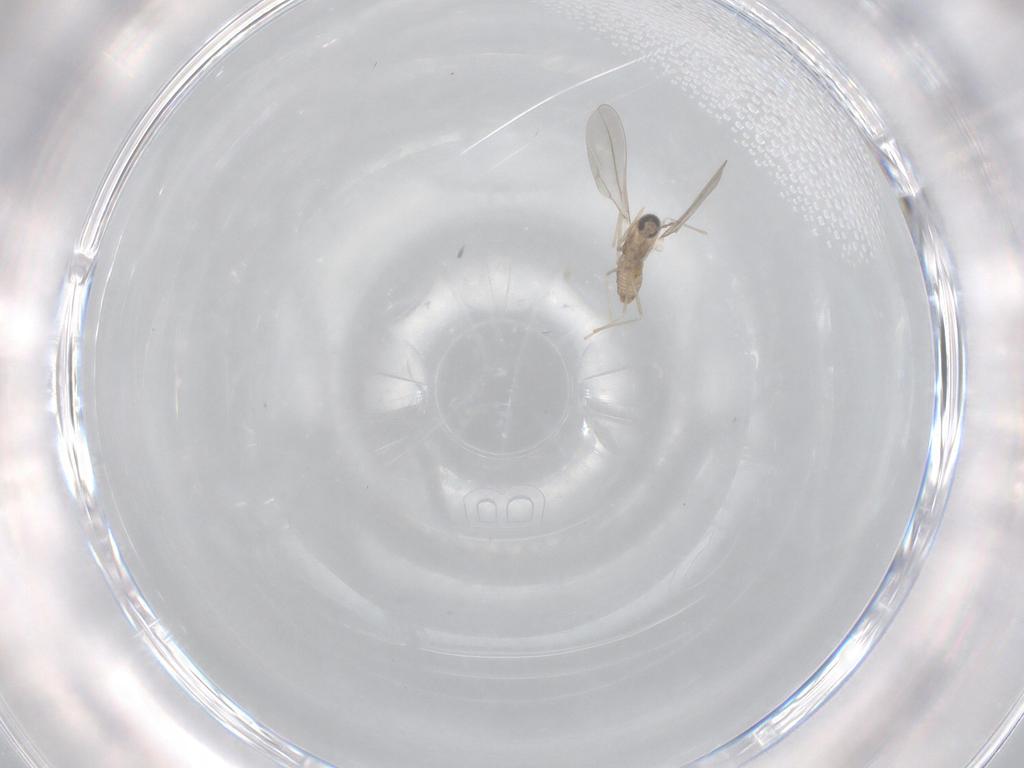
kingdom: Animalia
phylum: Arthropoda
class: Insecta
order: Diptera
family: Cecidomyiidae
